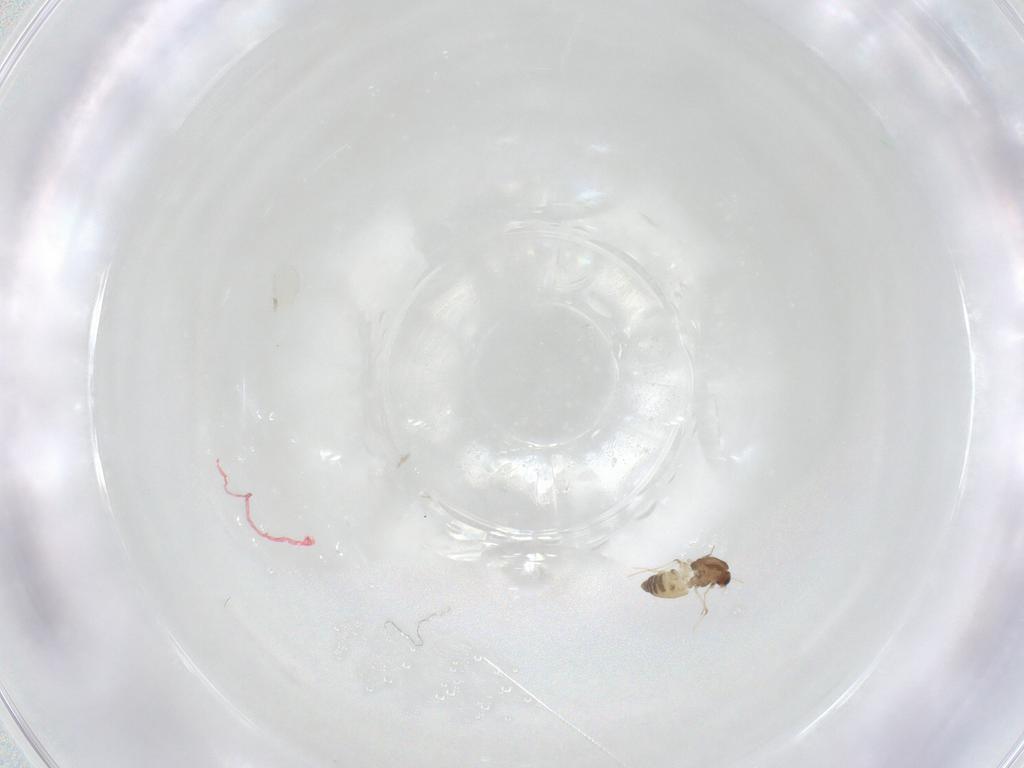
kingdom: Animalia
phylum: Arthropoda
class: Insecta
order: Diptera
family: Chironomidae
